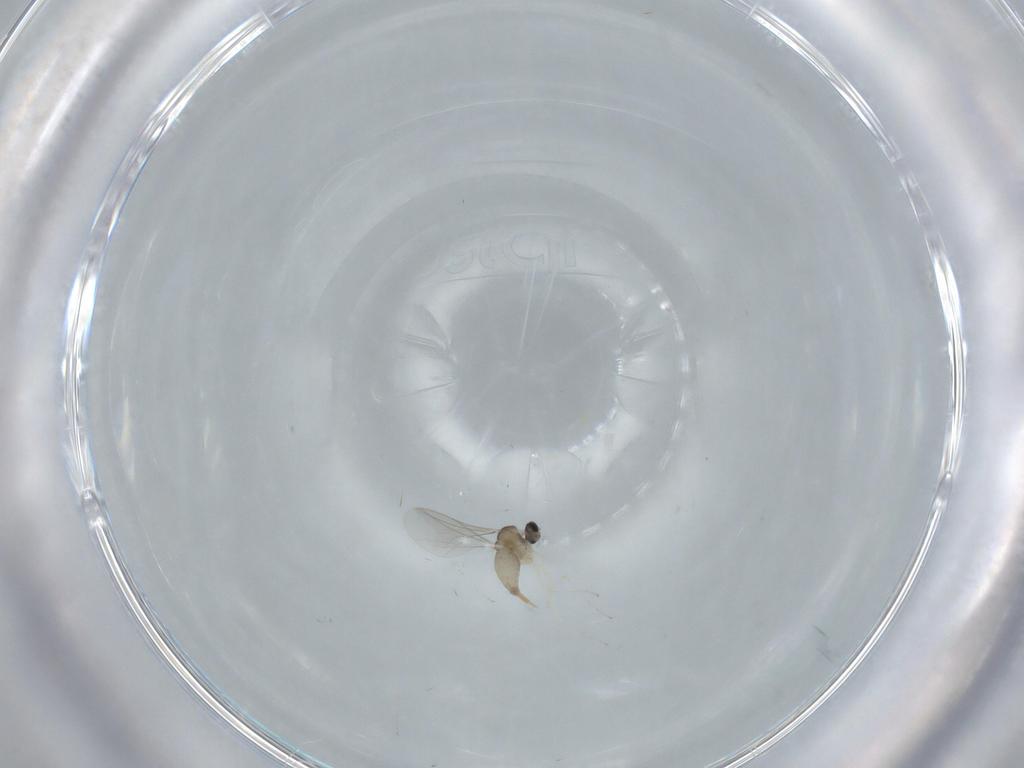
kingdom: Animalia
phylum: Arthropoda
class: Insecta
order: Diptera
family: Cecidomyiidae
